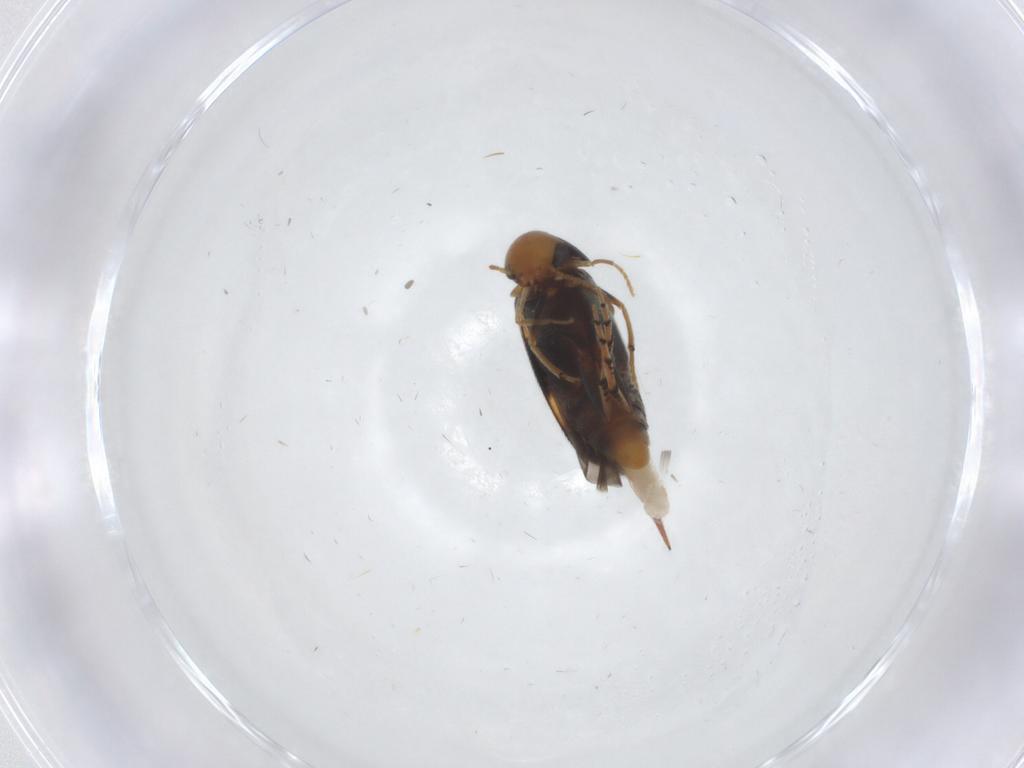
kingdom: Animalia
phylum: Arthropoda
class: Insecta
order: Coleoptera
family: Mordellidae
